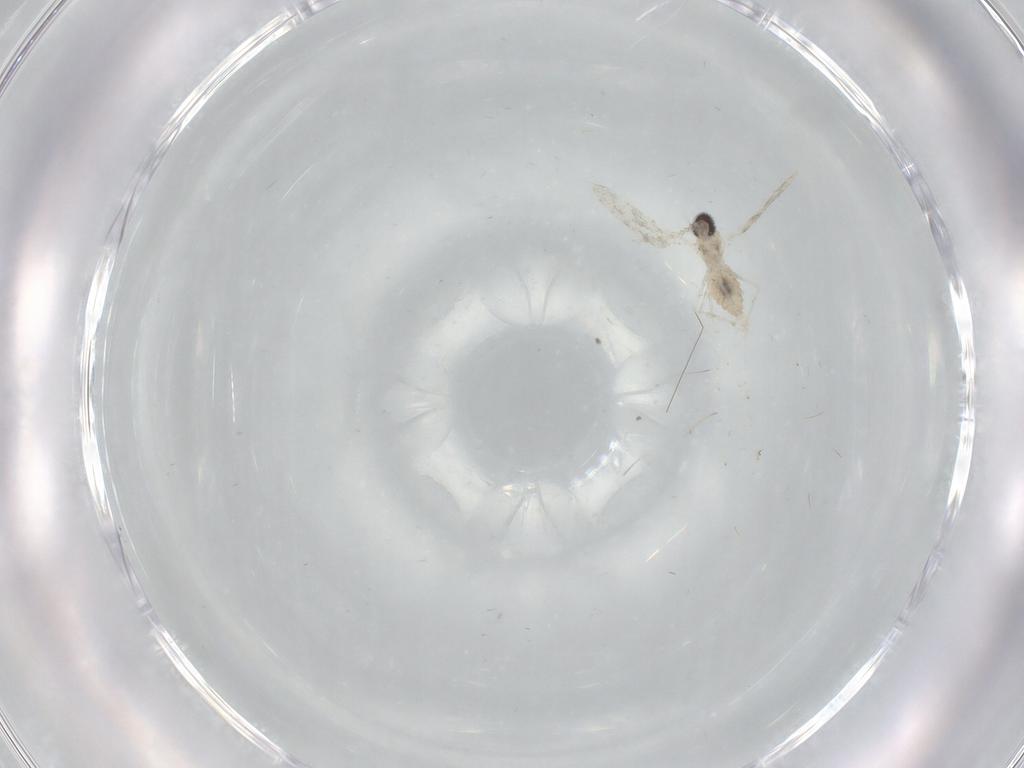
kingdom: Animalia
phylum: Arthropoda
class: Insecta
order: Diptera
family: Cecidomyiidae
